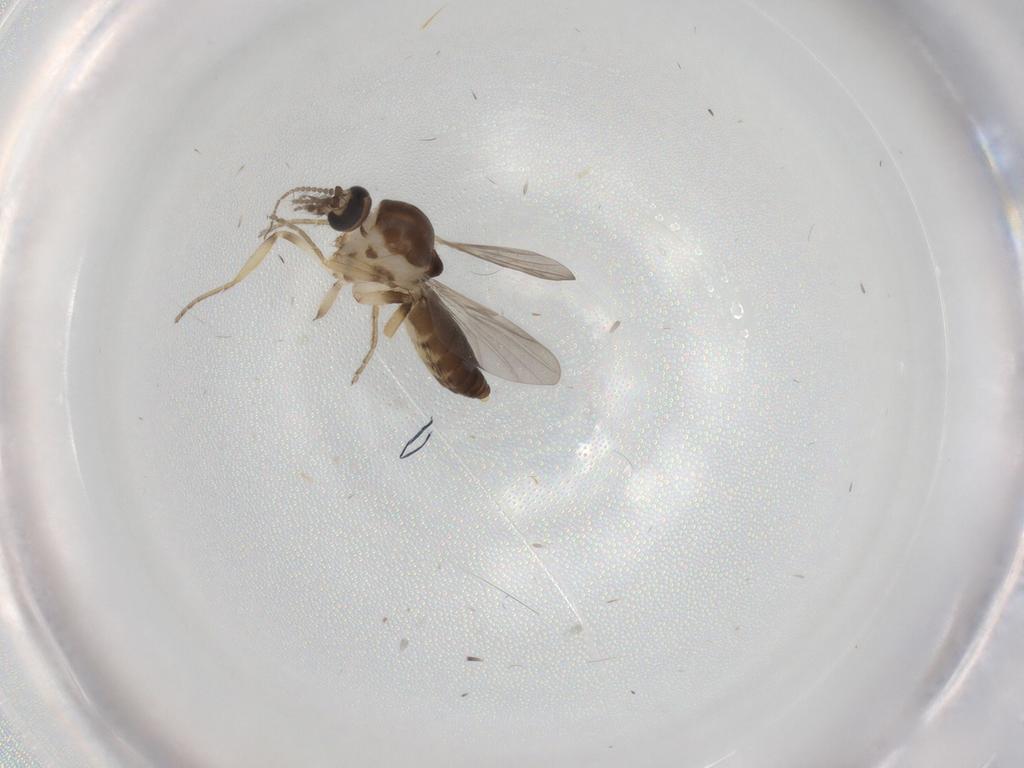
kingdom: Animalia
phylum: Arthropoda
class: Insecta
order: Diptera
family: Ceratopogonidae
